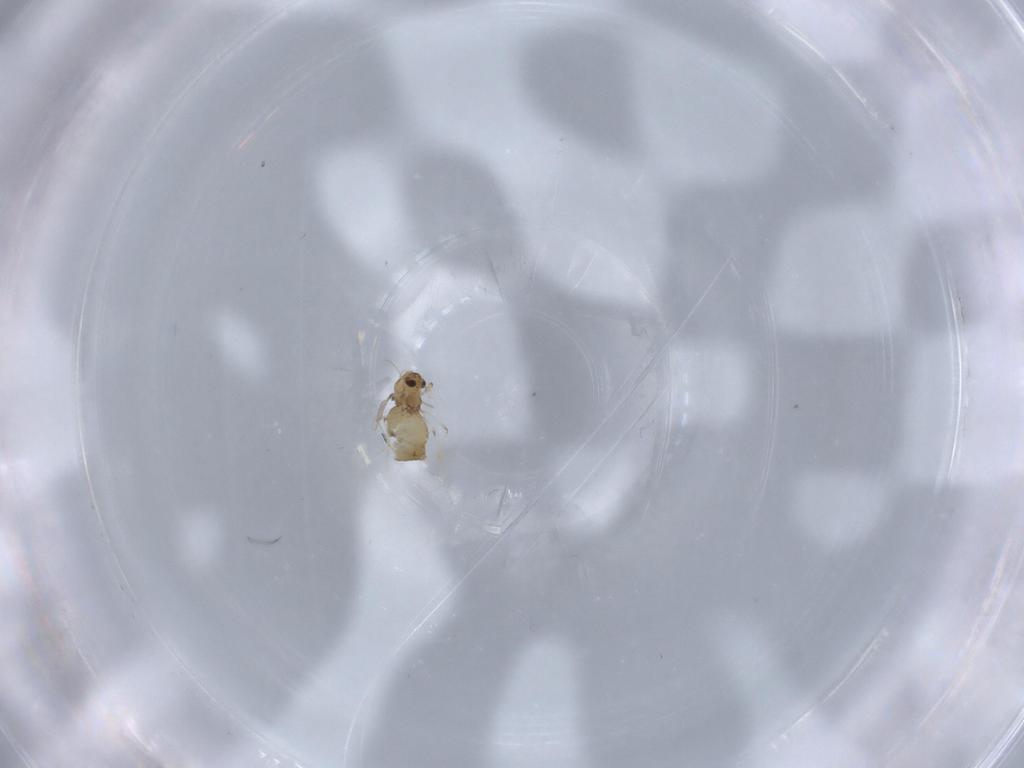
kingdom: Animalia
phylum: Arthropoda
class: Insecta
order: Diptera
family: Chironomidae
